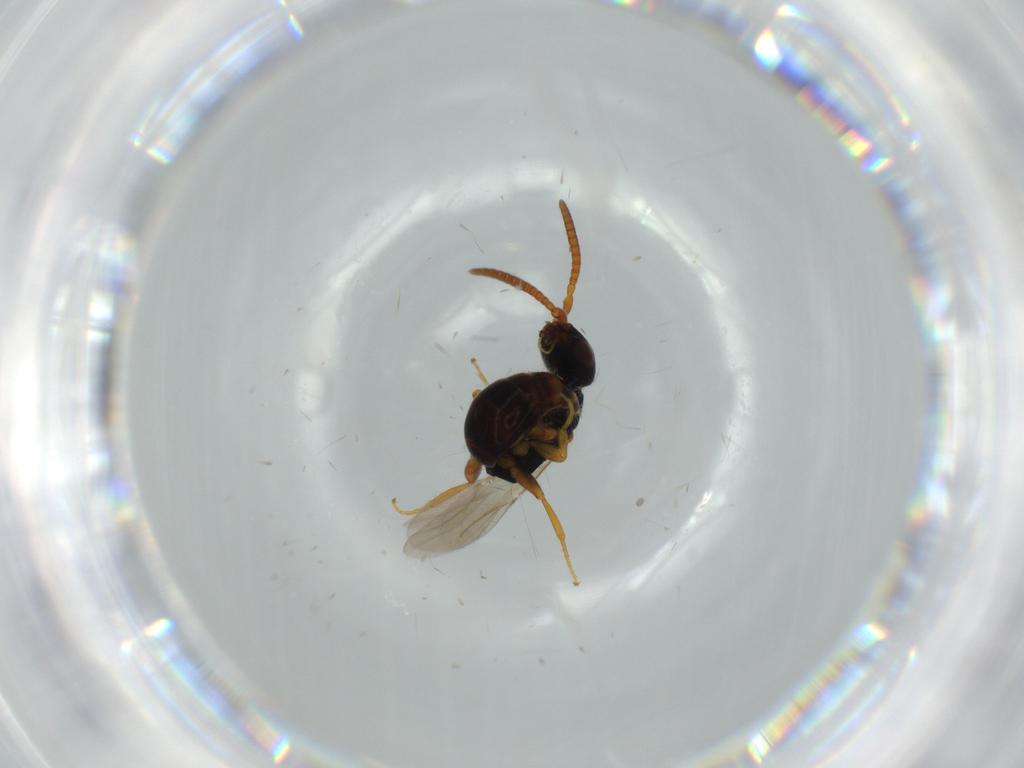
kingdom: Animalia
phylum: Arthropoda
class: Insecta
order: Hymenoptera
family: Bethylidae
